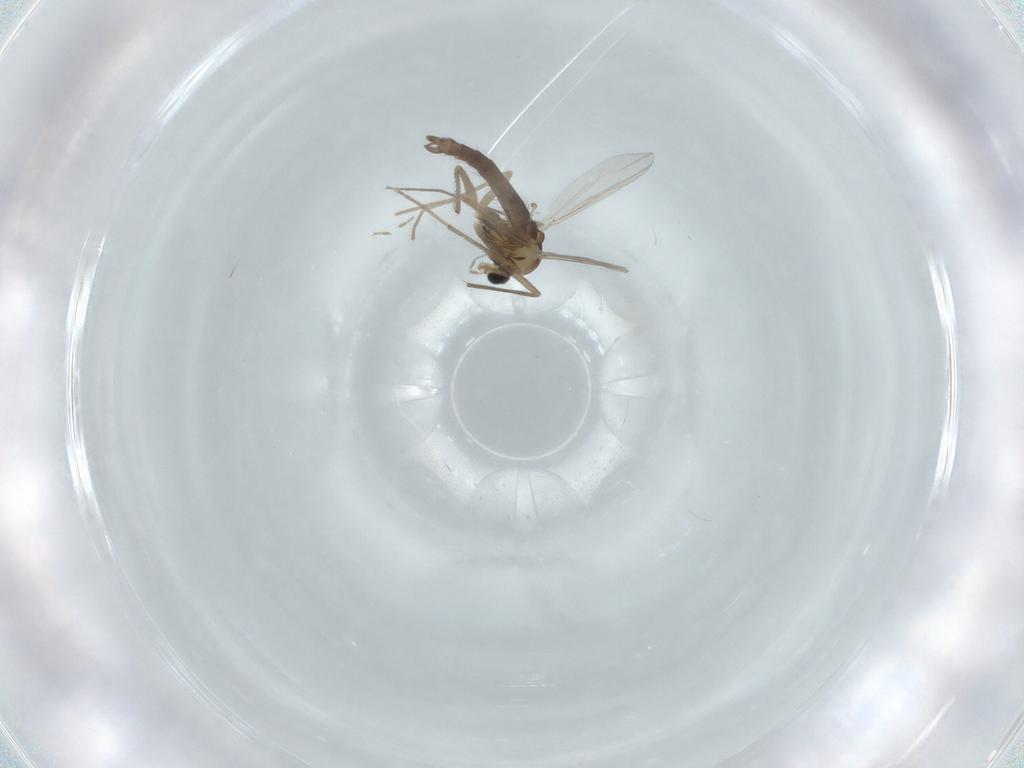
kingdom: Animalia
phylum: Arthropoda
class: Insecta
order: Diptera
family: Chironomidae
